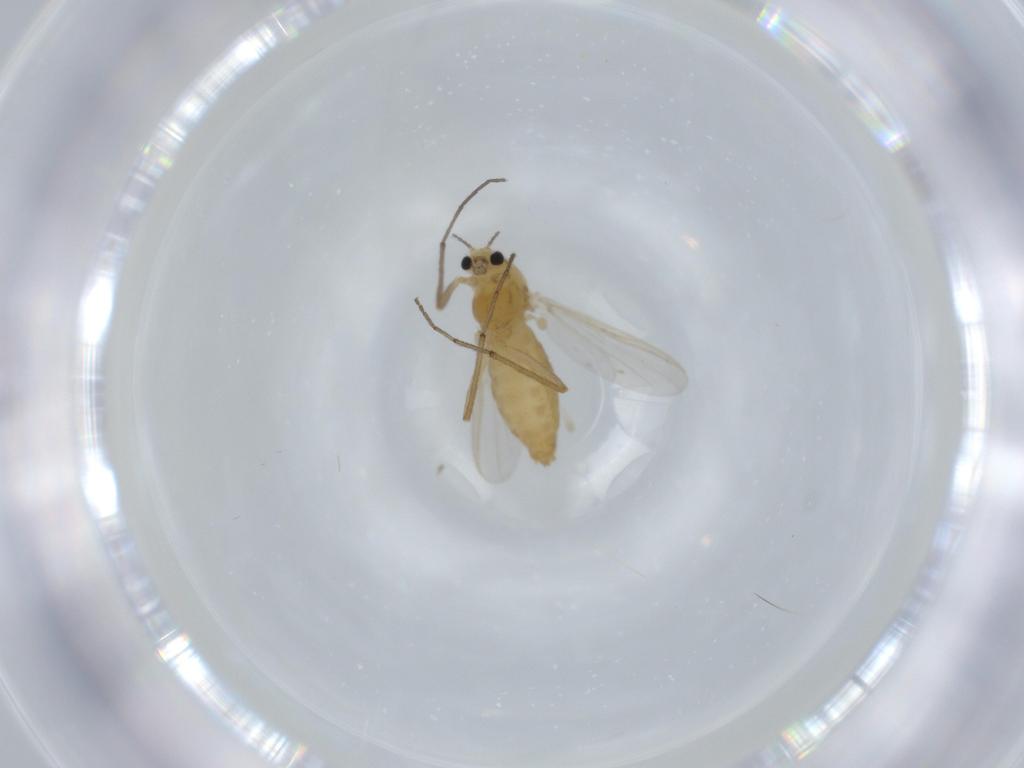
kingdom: Animalia
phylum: Arthropoda
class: Insecta
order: Diptera
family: Chironomidae
